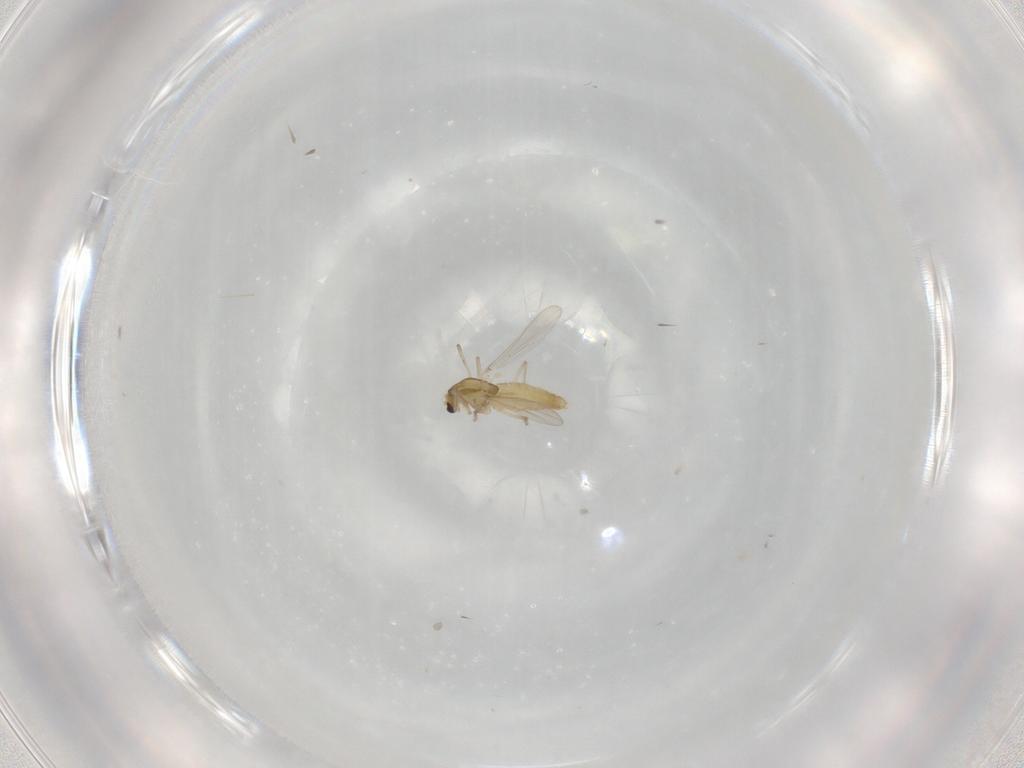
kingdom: Animalia
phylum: Arthropoda
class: Insecta
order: Diptera
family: Chironomidae
